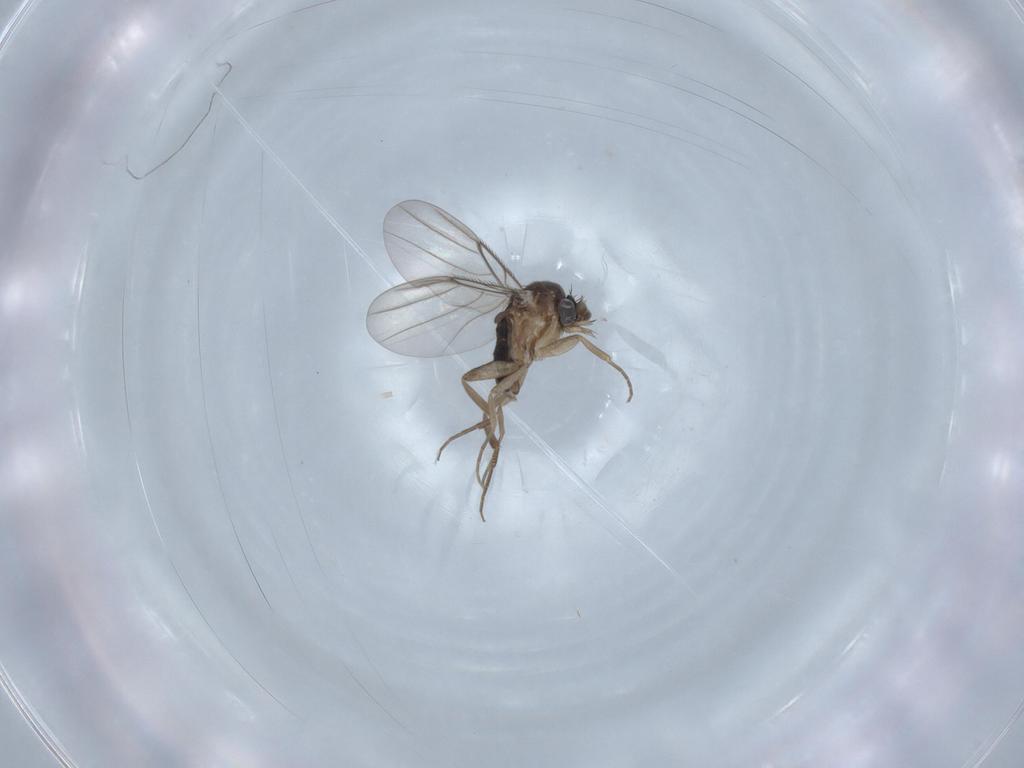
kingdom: Animalia
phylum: Arthropoda
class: Insecta
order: Diptera
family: Phoridae
